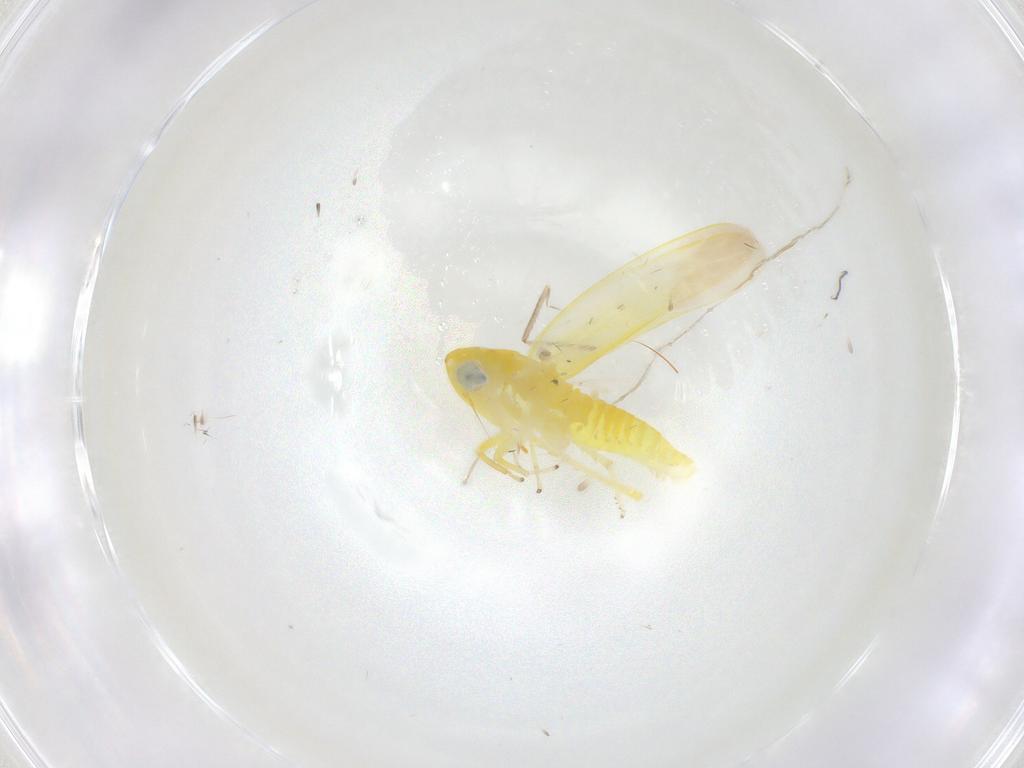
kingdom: Animalia
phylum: Arthropoda
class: Insecta
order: Hemiptera
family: Cicadellidae
